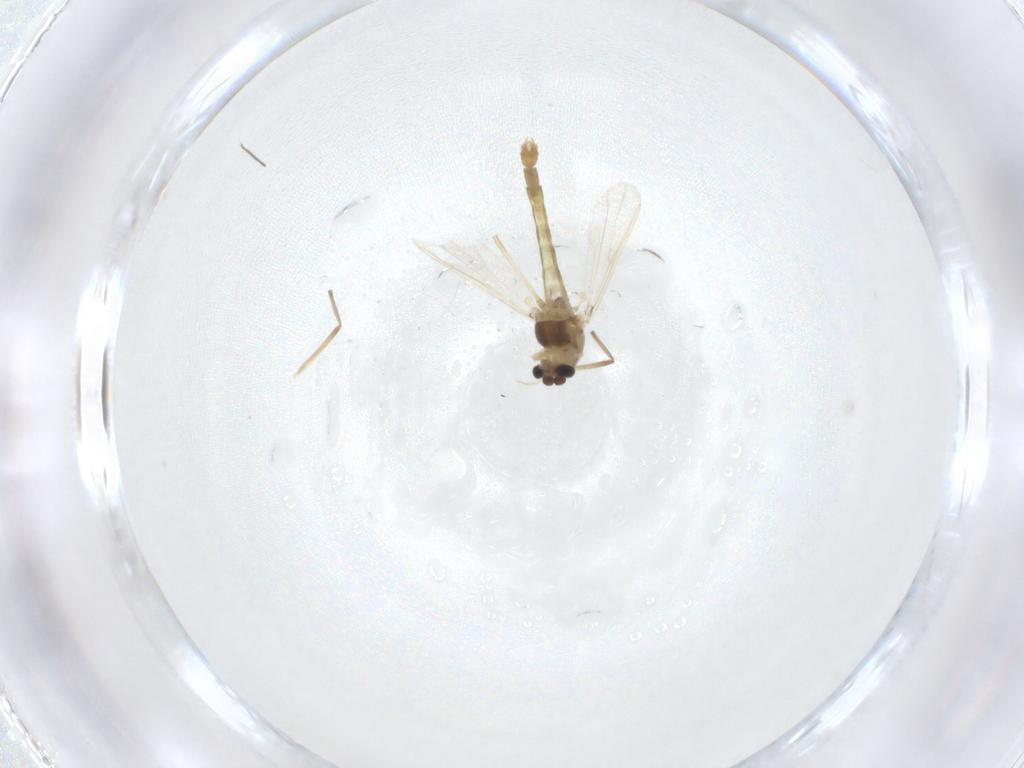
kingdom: Animalia
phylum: Arthropoda
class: Insecta
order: Diptera
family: Chironomidae
